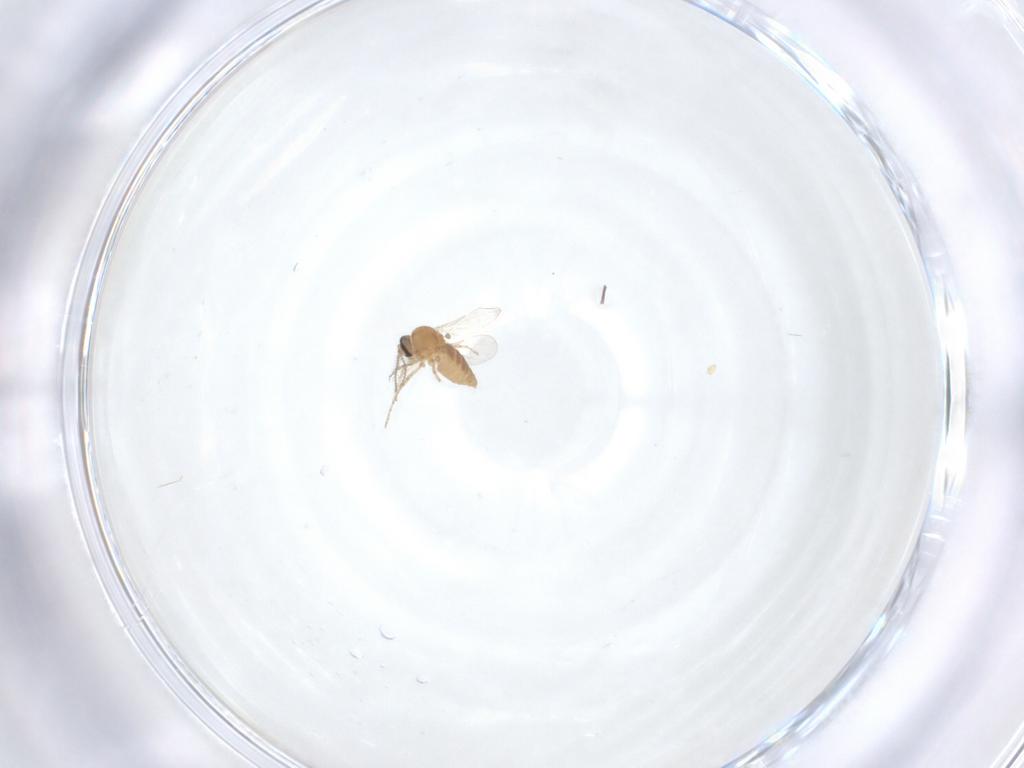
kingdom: Animalia
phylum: Arthropoda
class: Insecta
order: Diptera
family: Ceratopogonidae
